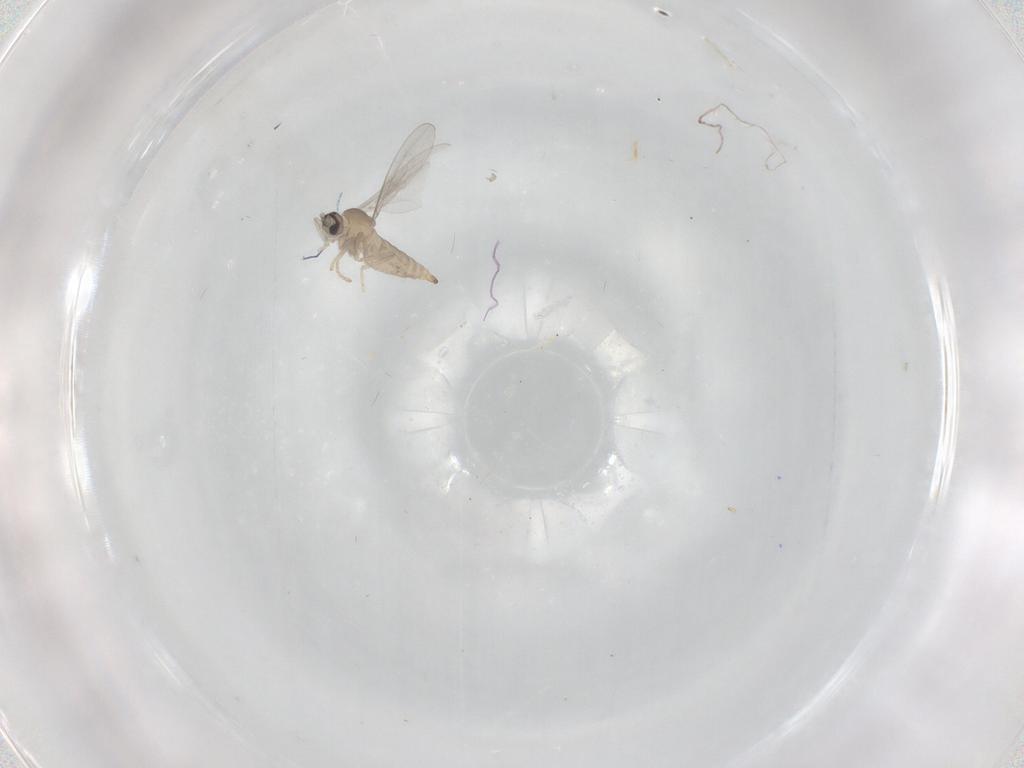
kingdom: Animalia
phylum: Arthropoda
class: Insecta
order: Diptera
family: Cecidomyiidae
